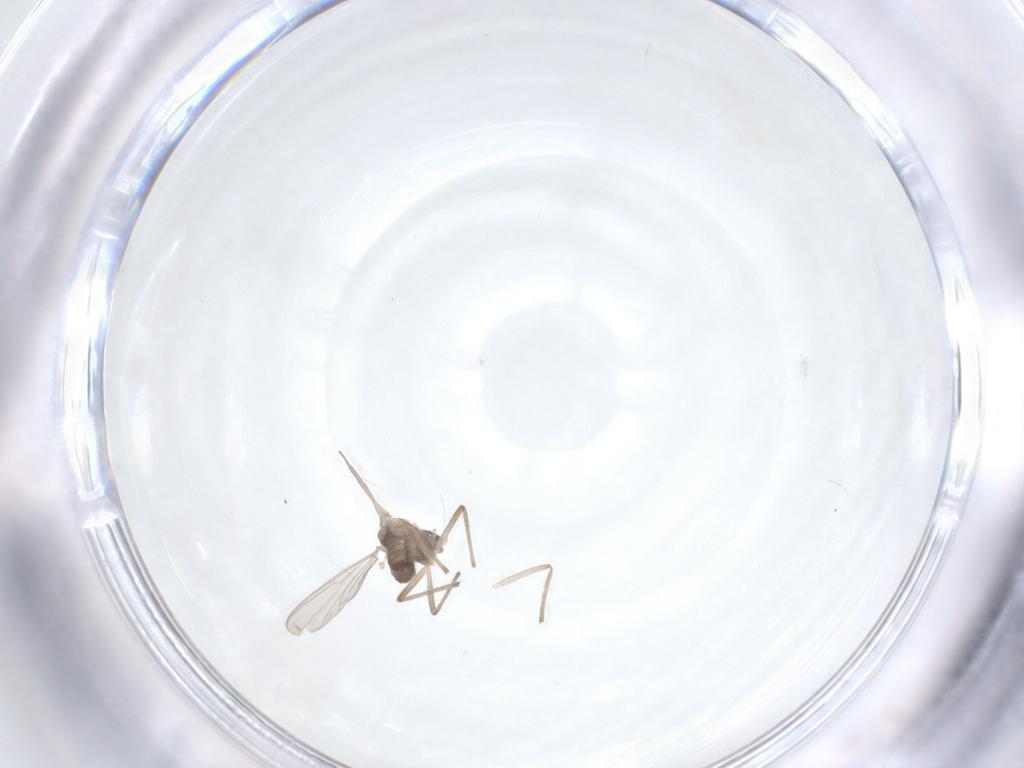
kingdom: Animalia
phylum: Arthropoda
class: Insecta
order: Diptera
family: Chironomidae
